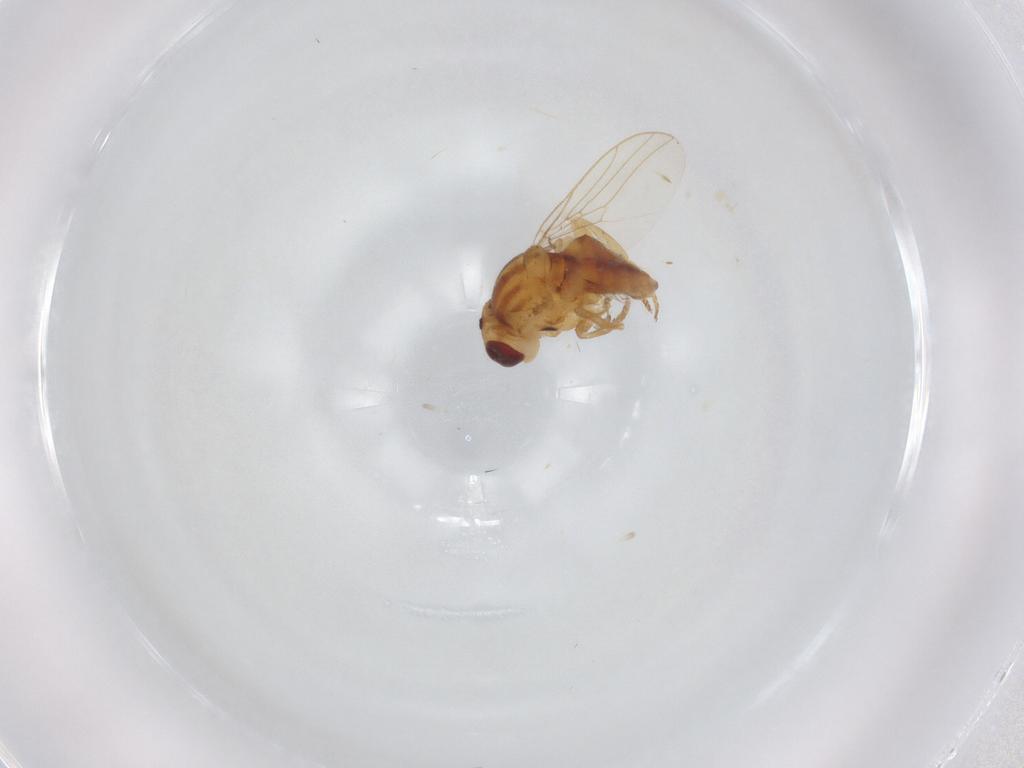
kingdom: Animalia
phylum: Arthropoda
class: Insecta
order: Diptera
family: Chloropidae
